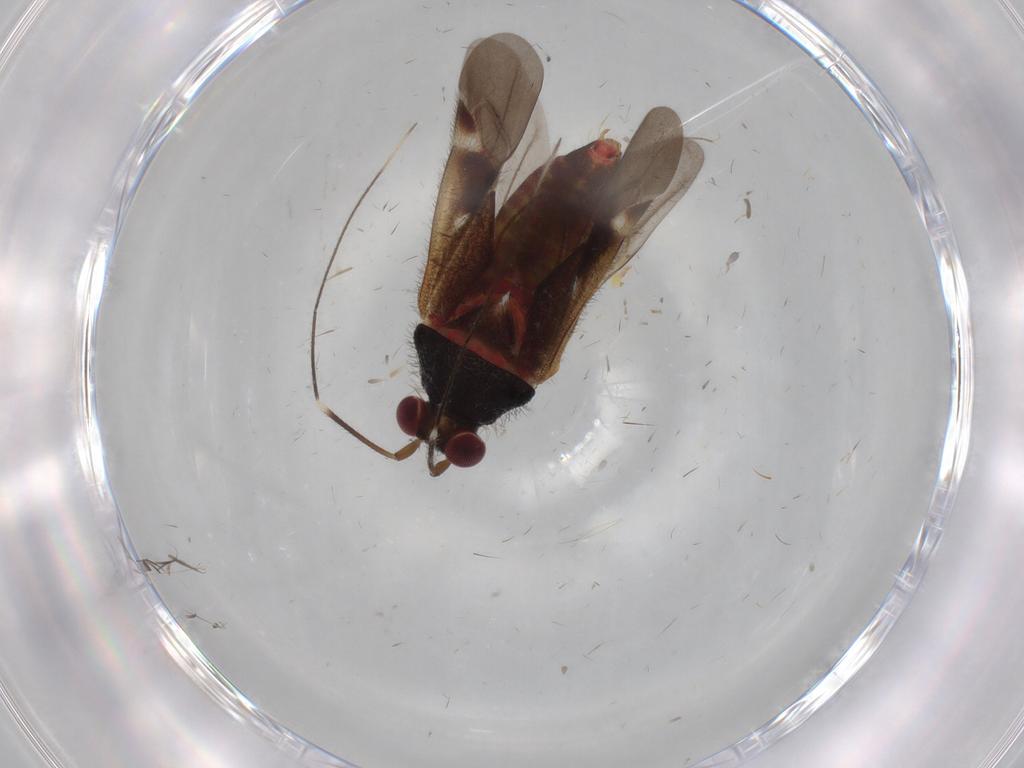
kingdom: Animalia
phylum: Arthropoda
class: Insecta
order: Hemiptera
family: Miridae
